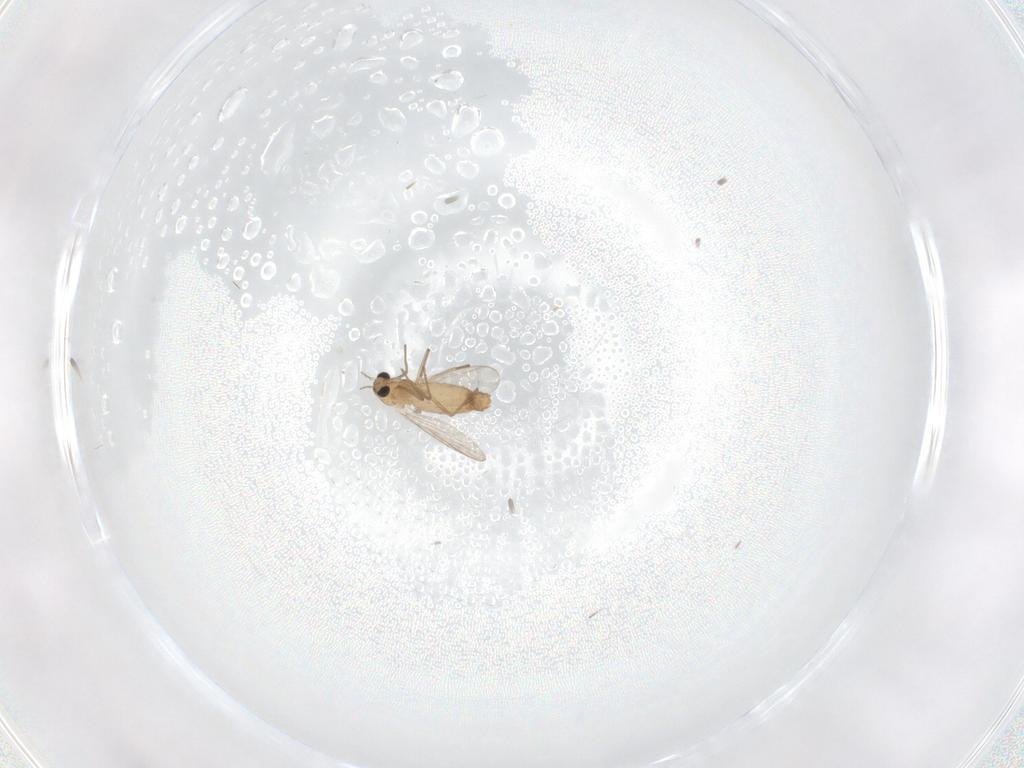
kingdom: Animalia
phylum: Arthropoda
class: Insecta
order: Diptera
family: Chironomidae
